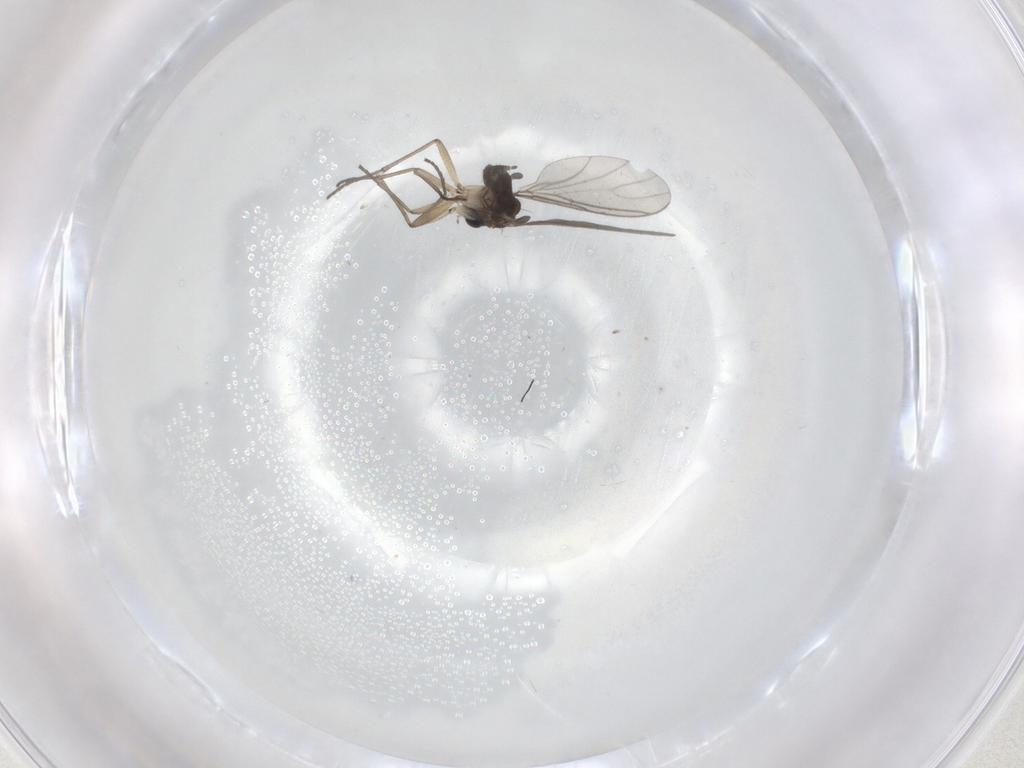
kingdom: Animalia
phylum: Arthropoda
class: Insecta
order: Diptera
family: Sciaridae
